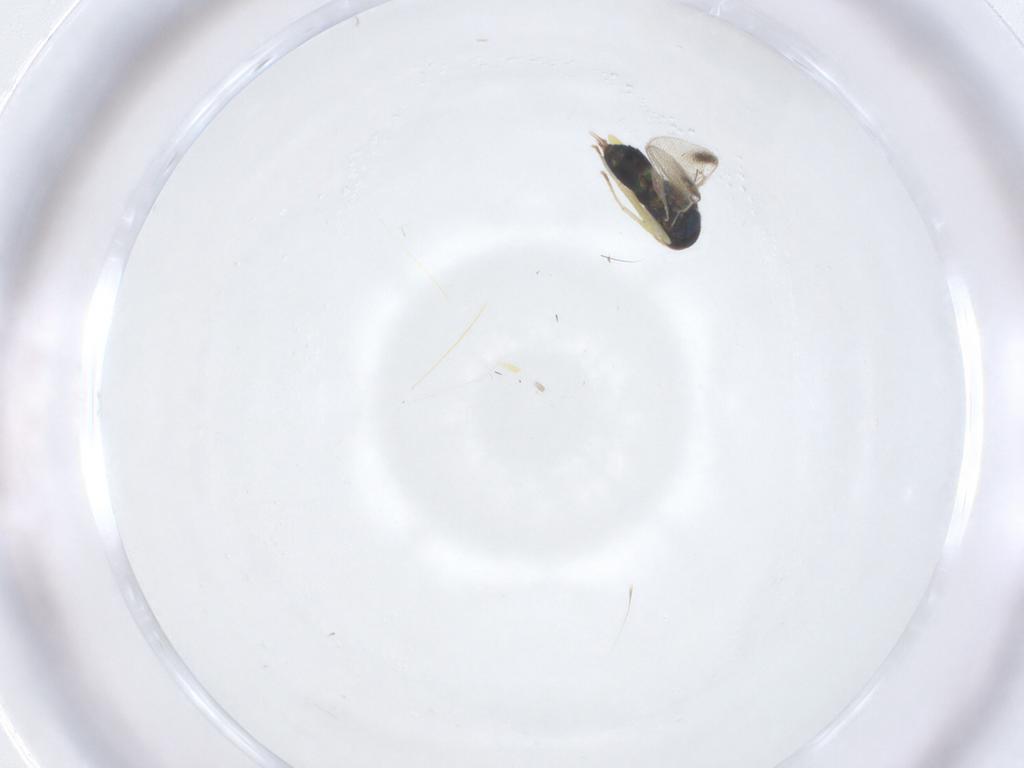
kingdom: Animalia
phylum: Arthropoda
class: Insecta
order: Hymenoptera
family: Eulophidae
